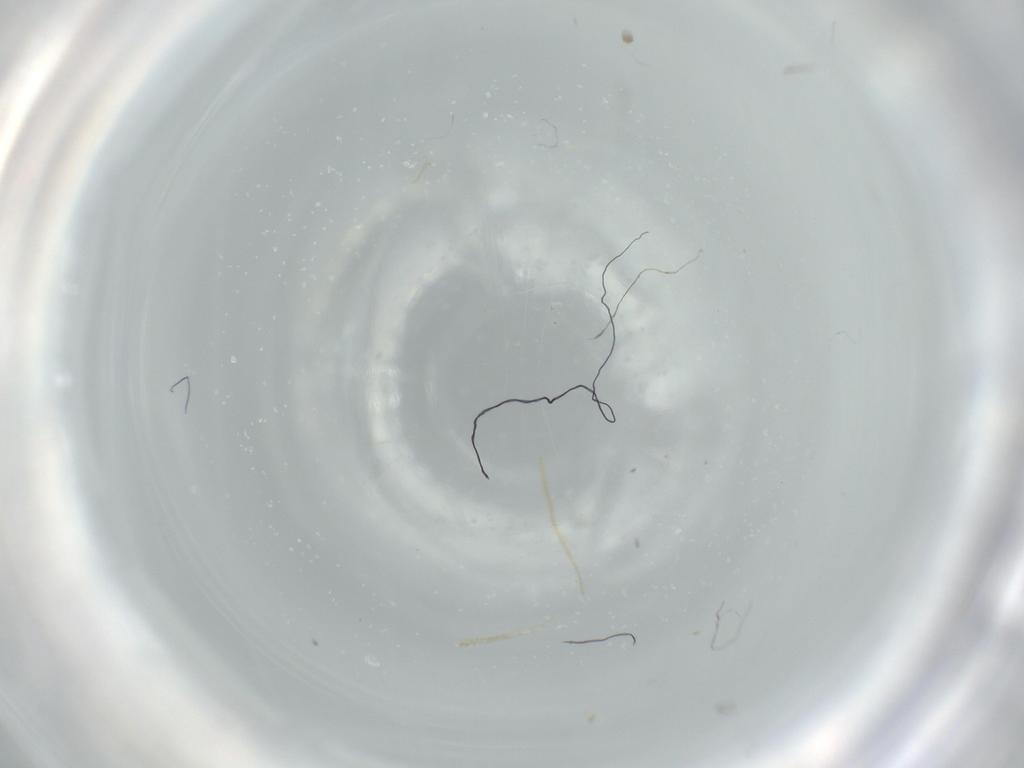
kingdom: Animalia
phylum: Arthropoda
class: Insecta
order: Coleoptera
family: Lampyridae
